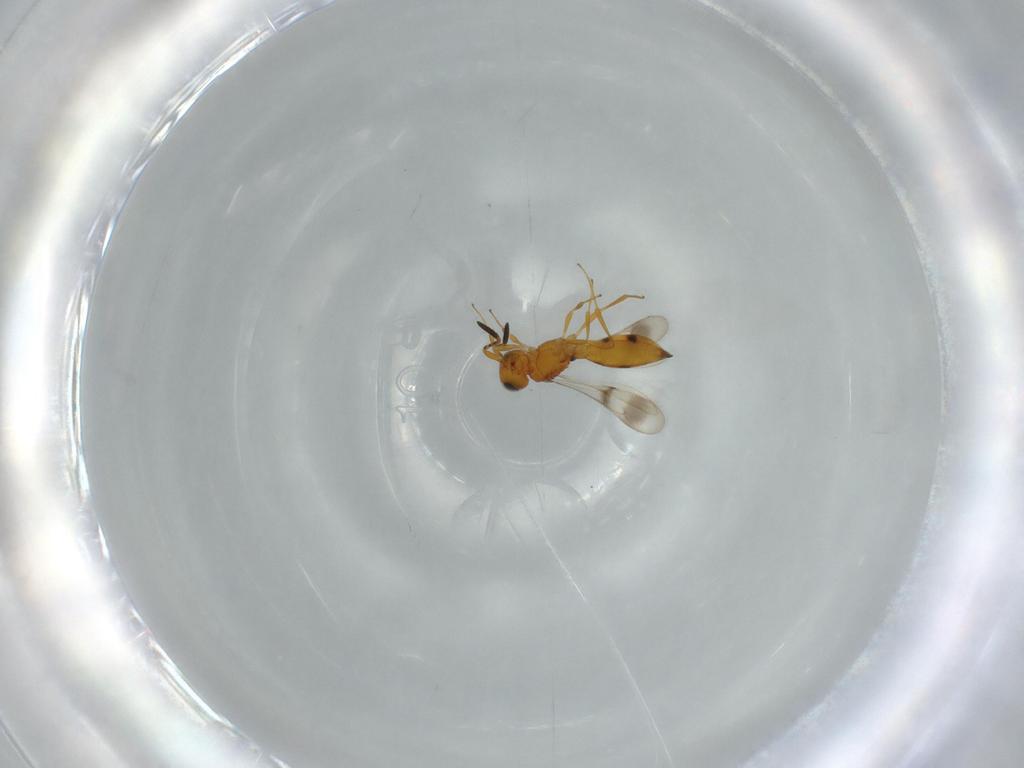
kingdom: Animalia
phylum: Arthropoda
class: Insecta
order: Hymenoptera
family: Scelionidae
